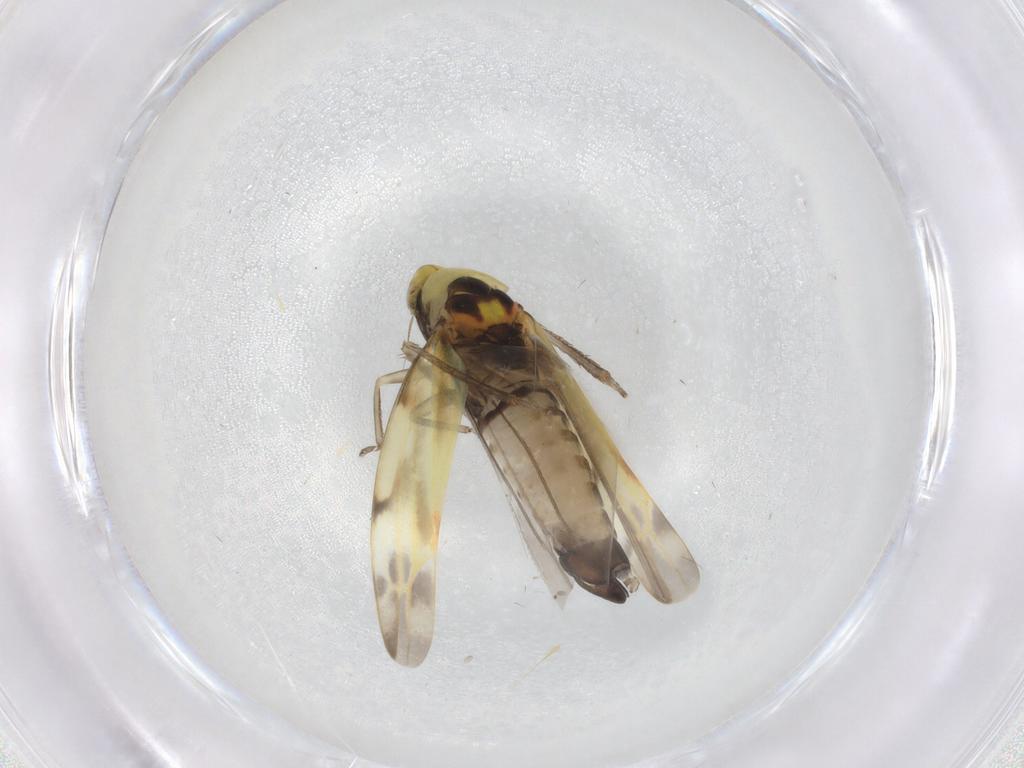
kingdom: Animalia
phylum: Arthropoda
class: Insecta
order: Hemiptera
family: Cicadellidae
